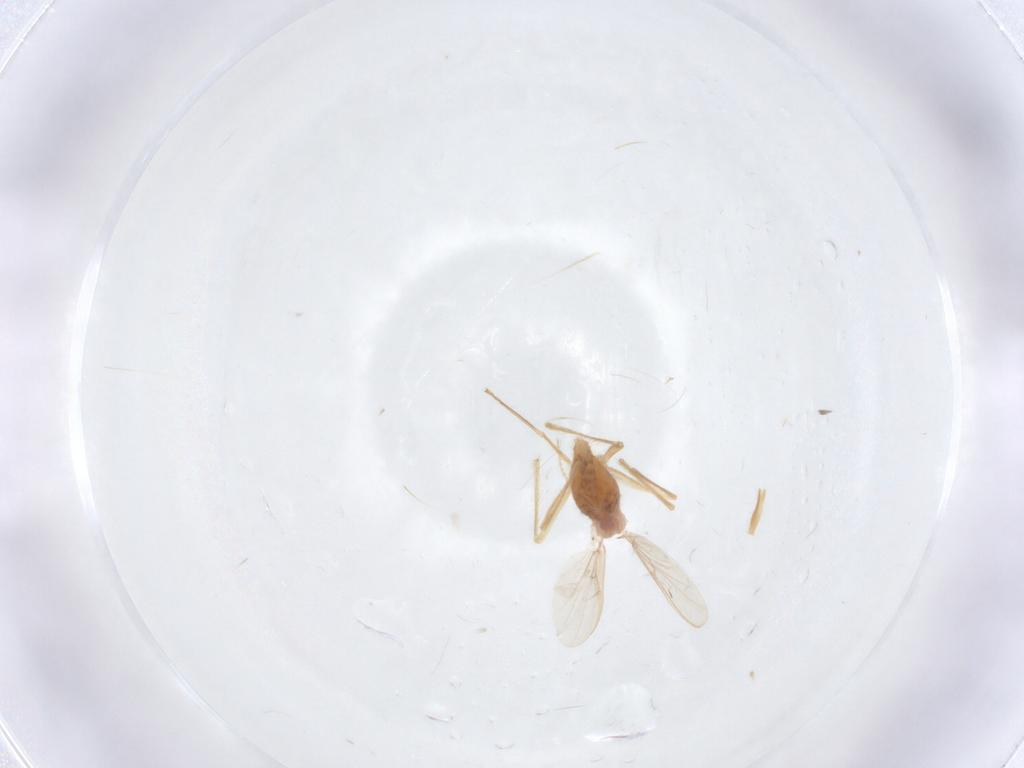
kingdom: Animalia
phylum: Arthropoda
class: Insecta
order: Diptera
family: Chironomidae
